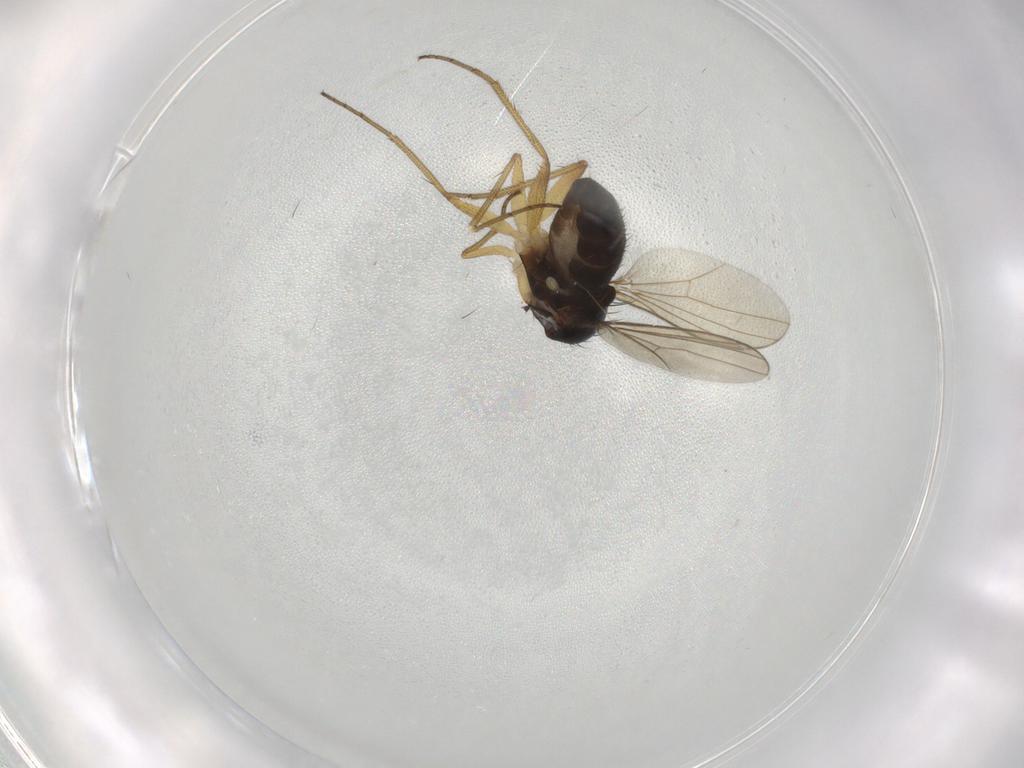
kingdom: Animalia
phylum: Arthropoda
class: Insecta
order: Diptera
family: Dolichopodidae
